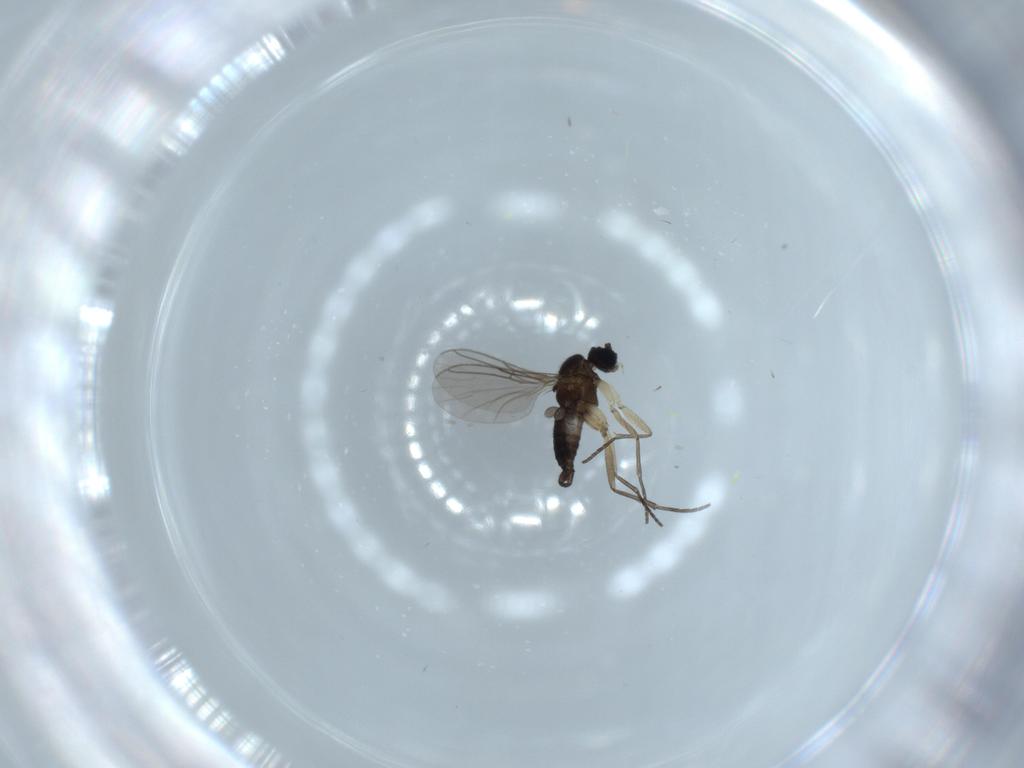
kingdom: Animalia
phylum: Arthropoda
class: Insecta
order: Diptera
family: Sciaridae
